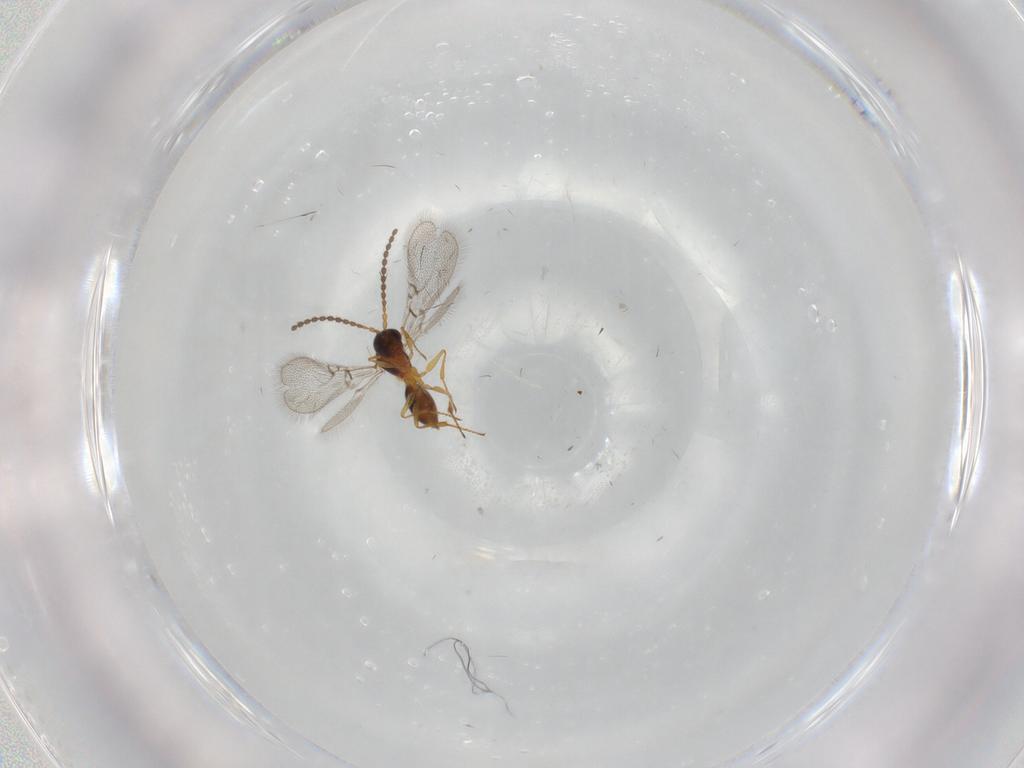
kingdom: Animalia
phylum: Arthropoda
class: Insecta
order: Hymenoptera
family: Figitidae
